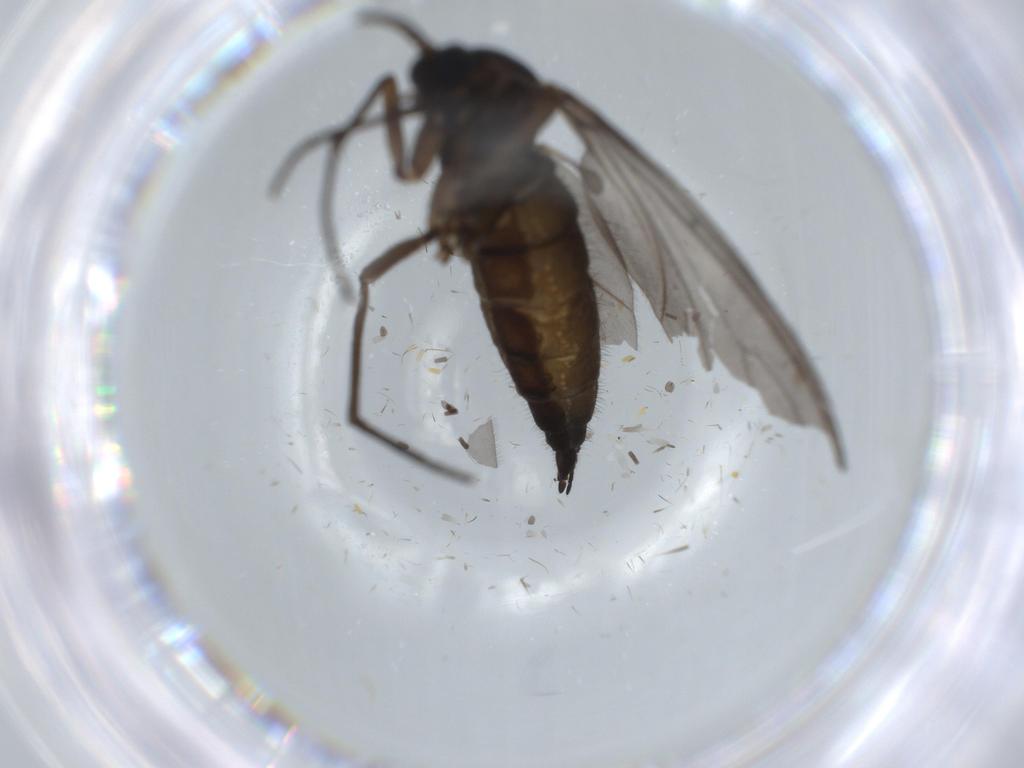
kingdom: Animalia
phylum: Arthropoda
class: Insecta
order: Diptera
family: Sciaridae
